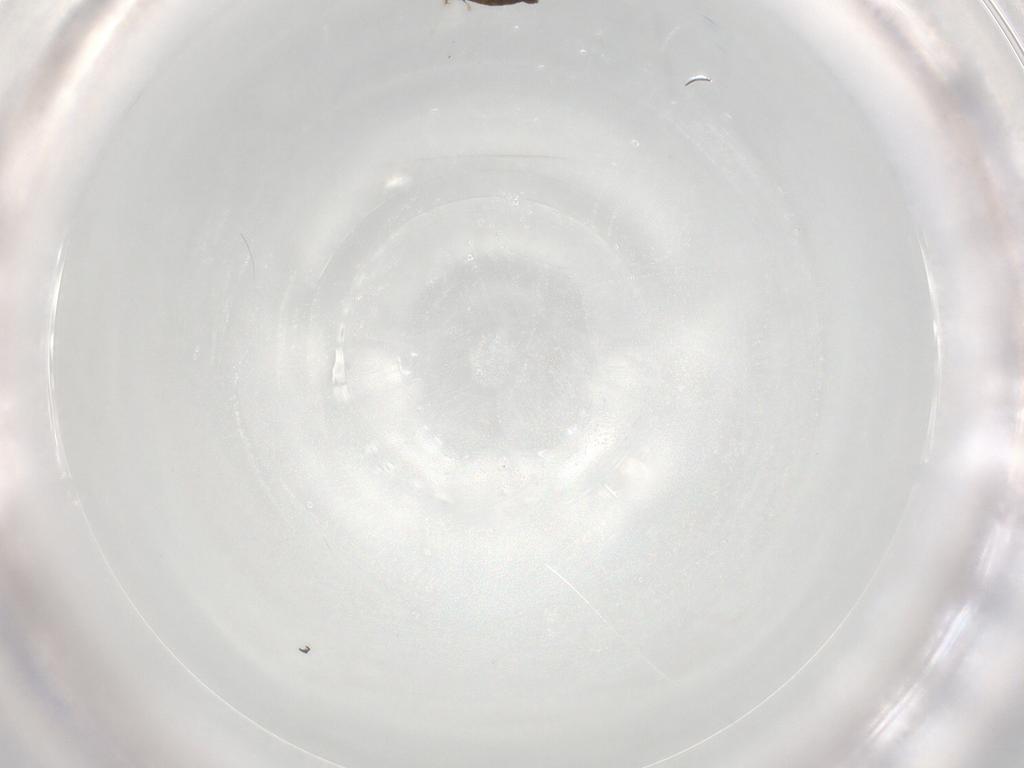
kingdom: Animalia
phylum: Arthropoda
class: Insecta
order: Diptera
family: Chironomidae
